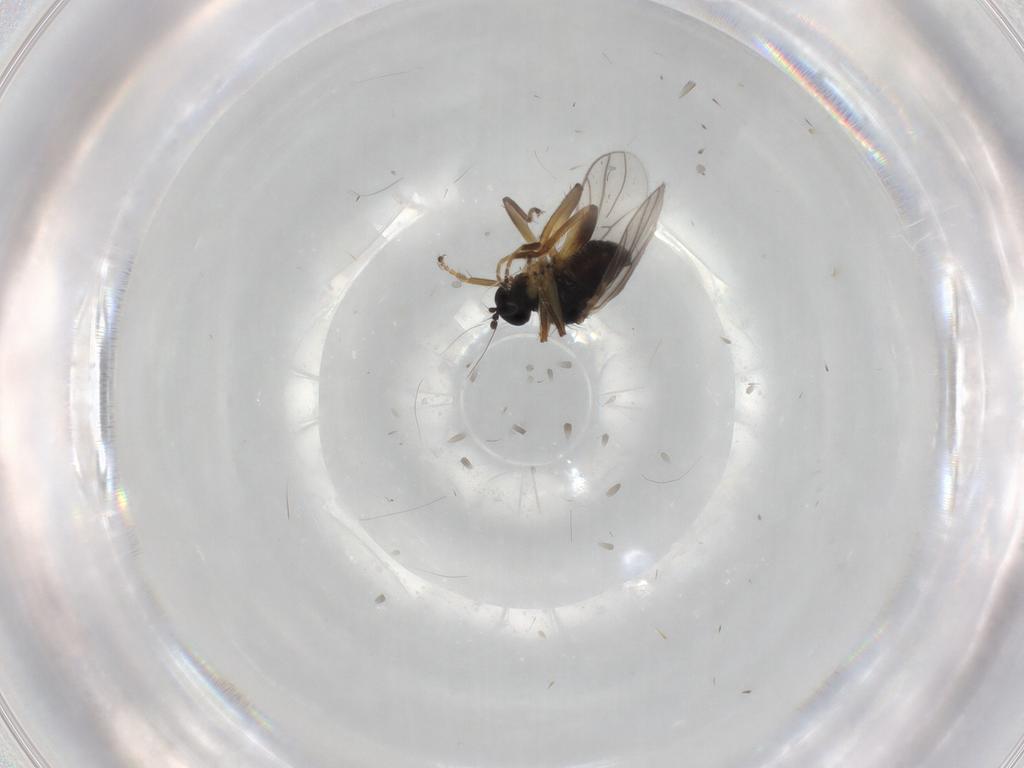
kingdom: Animalia
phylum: Arthropoda
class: Insecta
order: Diptera
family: Hybotidae
